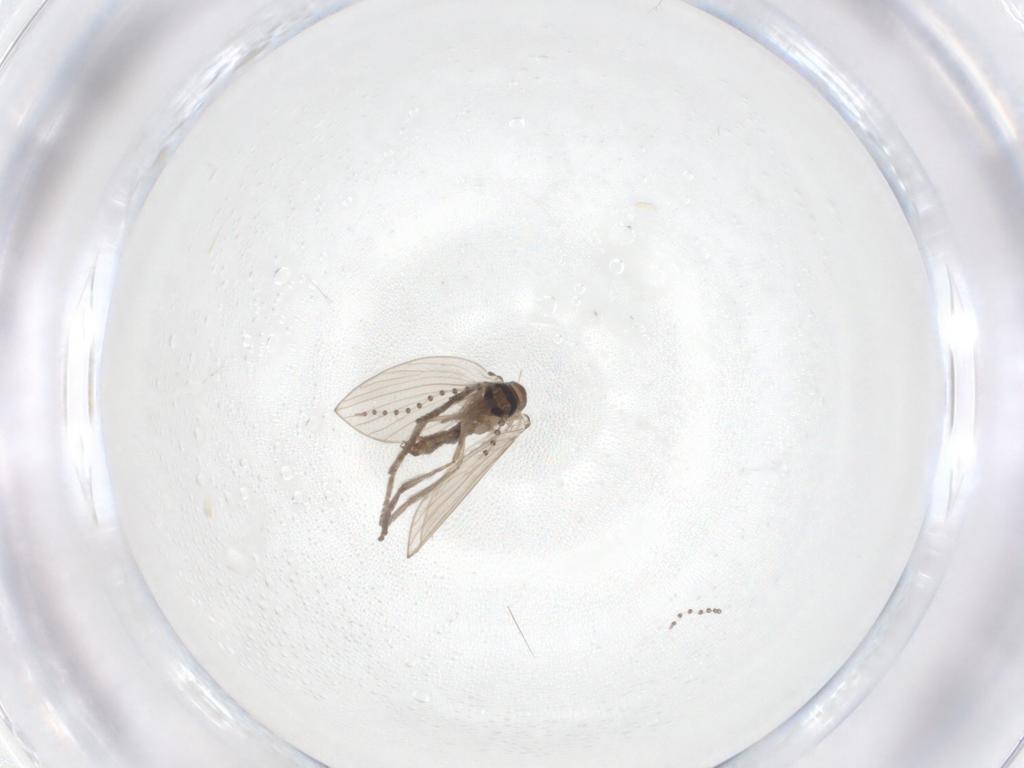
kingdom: Animalia
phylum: Arthropoda
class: Insecta
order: Diptera
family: Psychodidae
